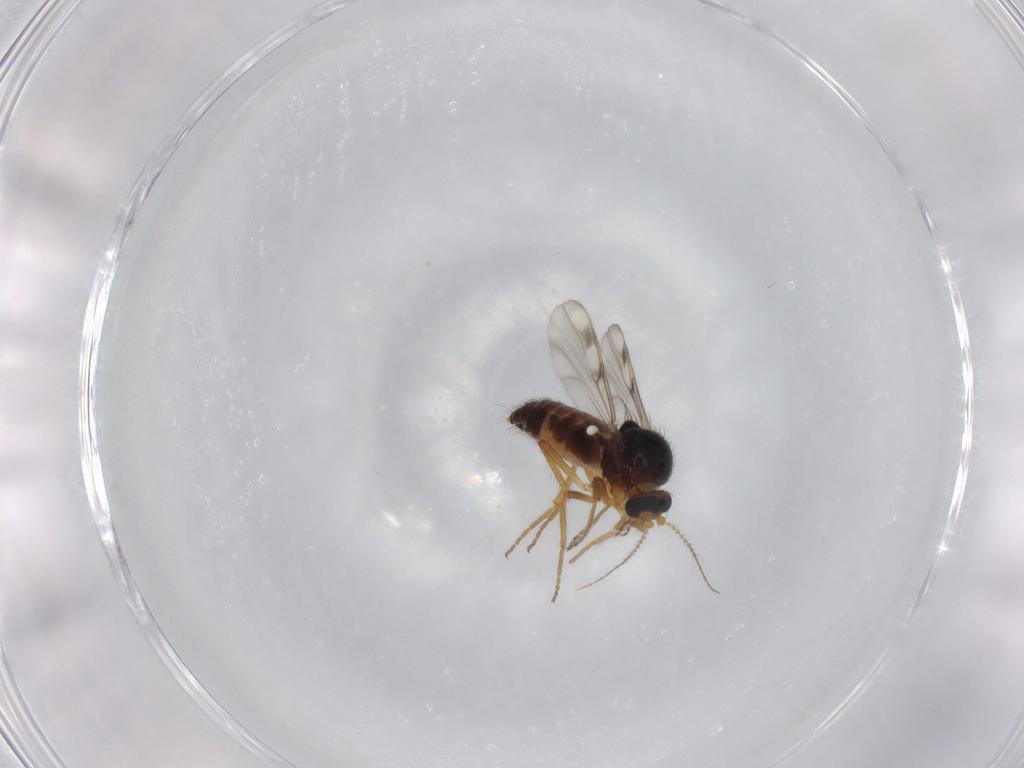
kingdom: Animalia
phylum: Arthropoda
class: Insecta
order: Diptera
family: Ceratopogonidae
